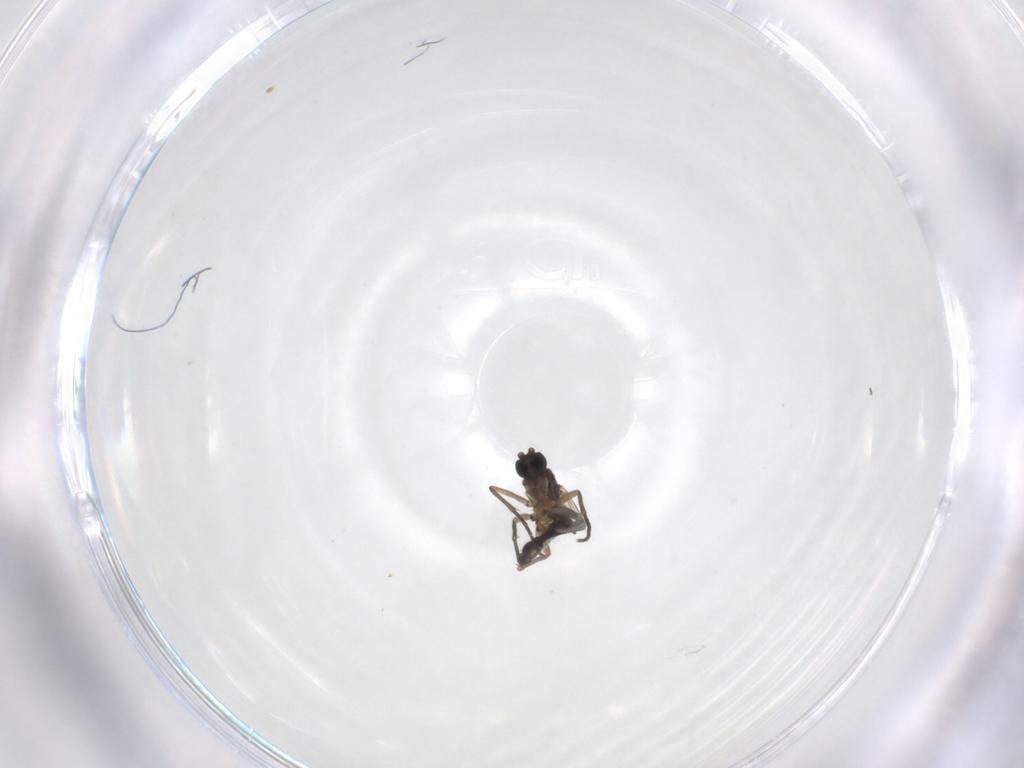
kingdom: Animalia
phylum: Arthropoda
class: Insecta
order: Diptera
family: Sciaridae
